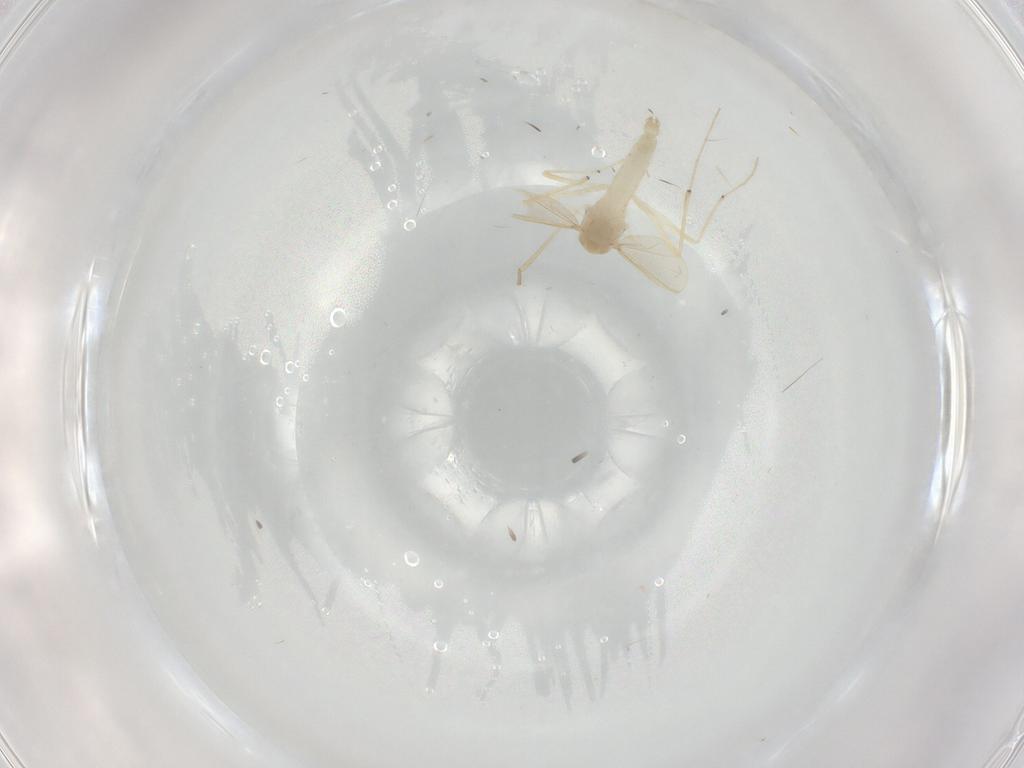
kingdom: Animalia
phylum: Arthropoda
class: Insecta
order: Diptera
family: Chironomidae
